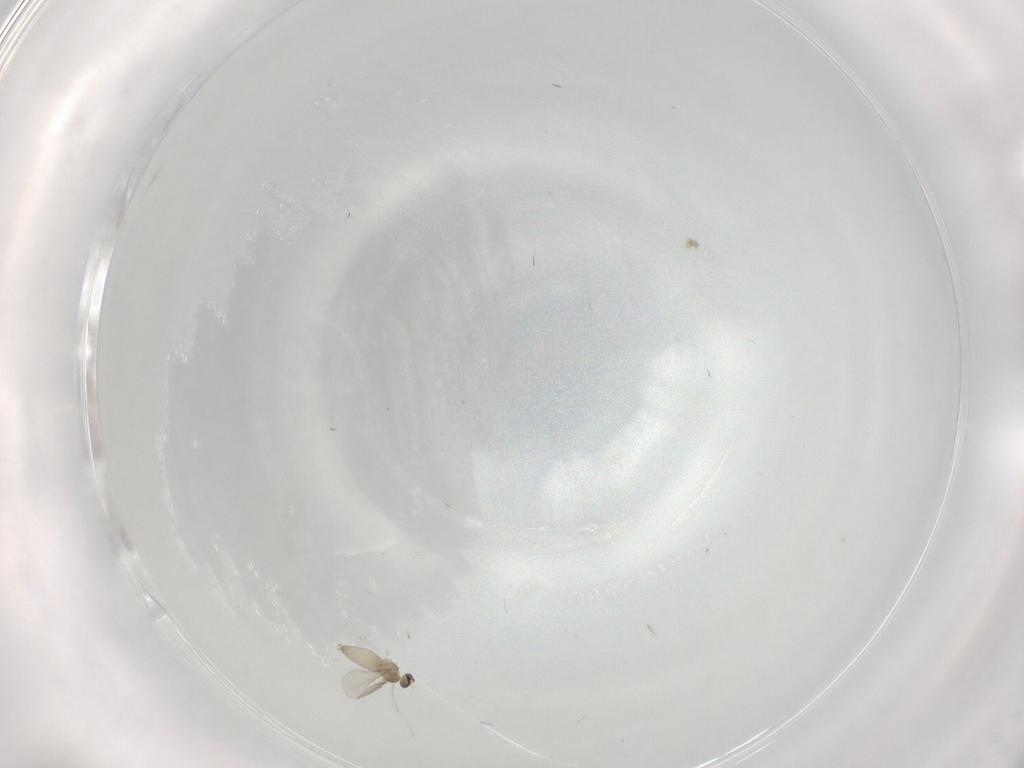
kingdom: Animalia
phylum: Arthropoda
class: Insecta
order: Diptera
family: Cecidomyiidae
